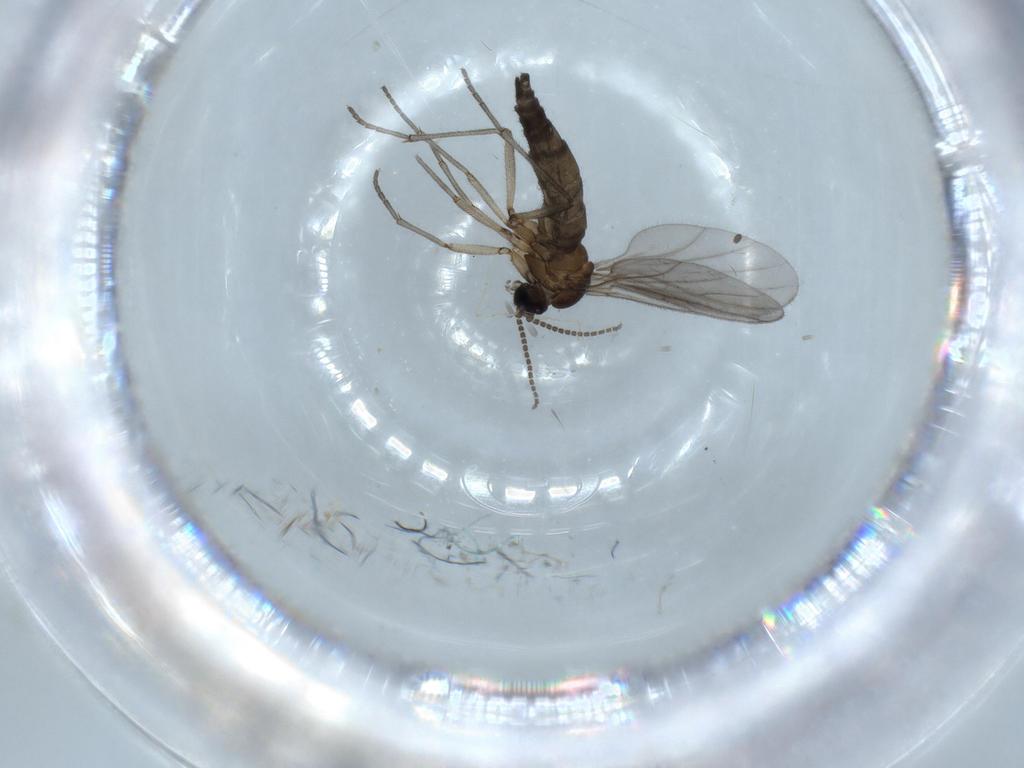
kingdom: Animalia
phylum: Arthropoda
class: Insecta
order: Diptera
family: Sciaridae
